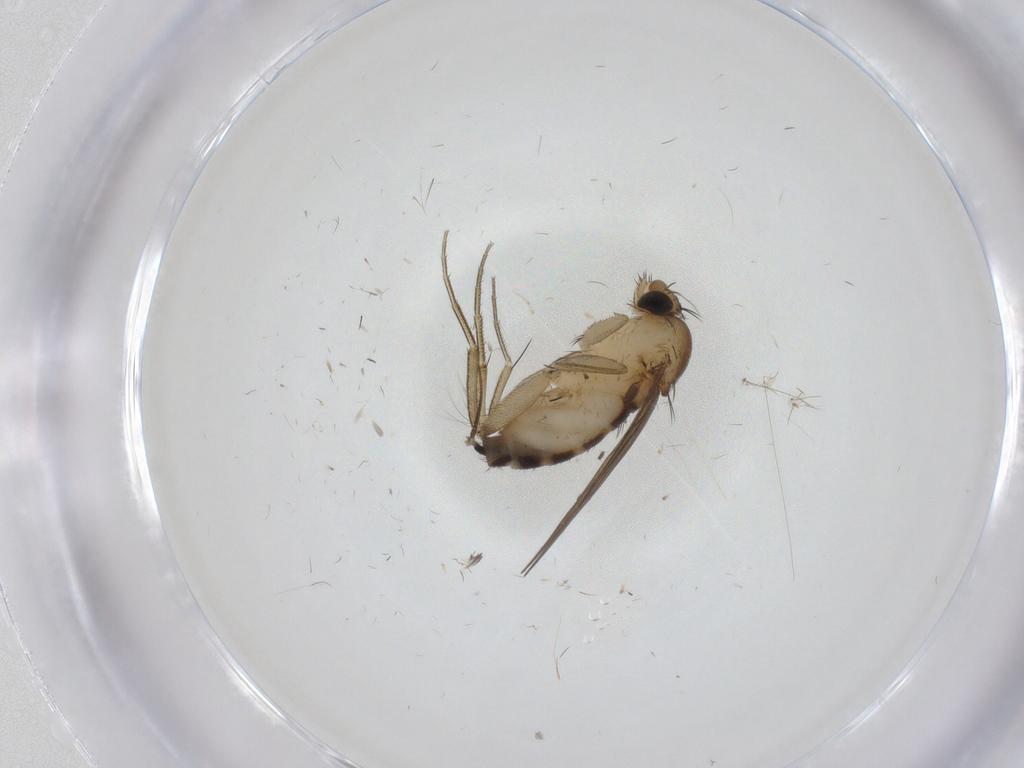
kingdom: Animalia
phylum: Arthropoda
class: Insecta
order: Diptera
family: Phoridae
